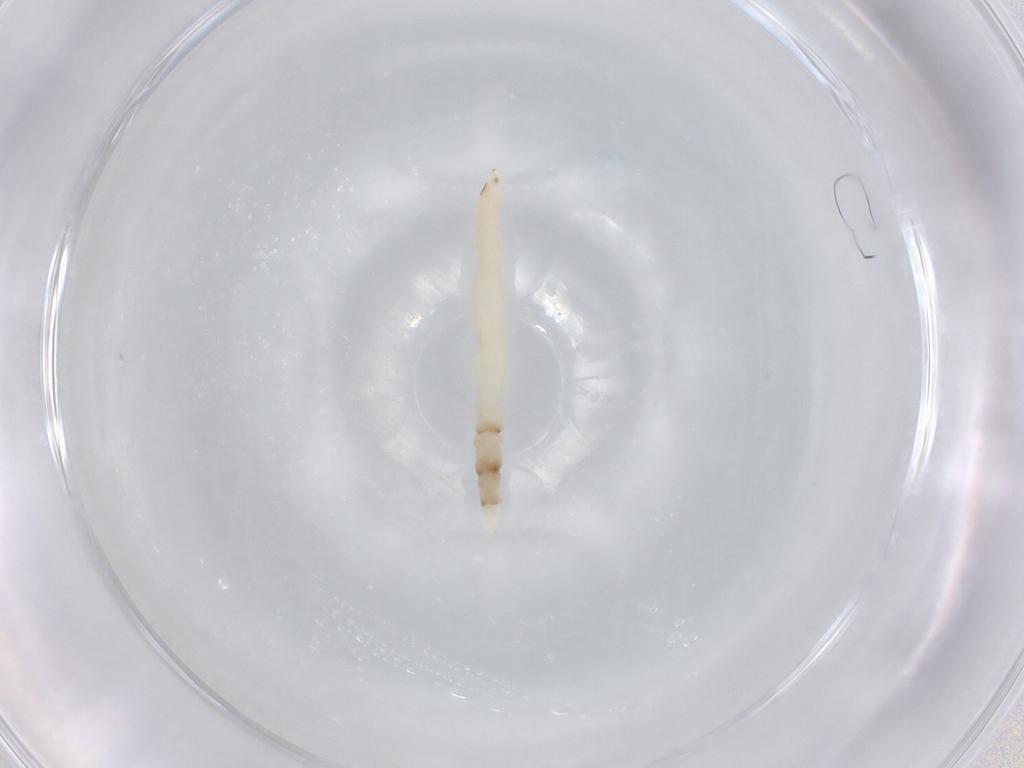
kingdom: Animalia
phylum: Arthropoda
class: Insecta
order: Diptera
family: Cecidomyiidae
